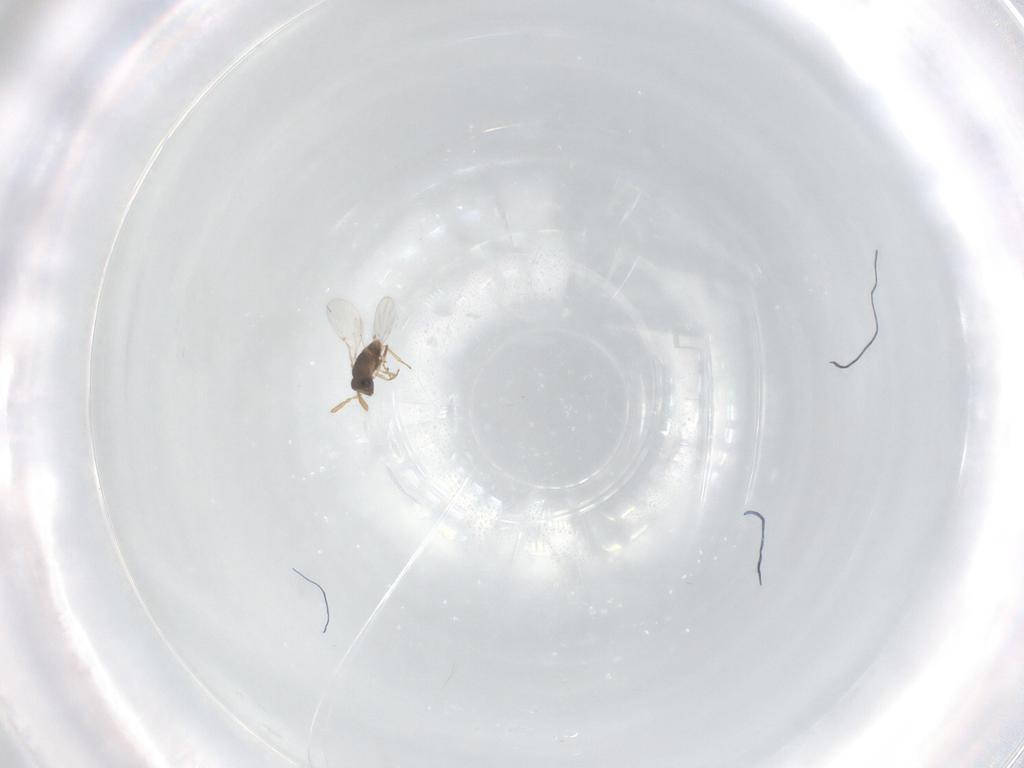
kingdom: Animalia
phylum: Arthropoda
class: Insecta
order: Hymenoptera
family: Encyrtidae
